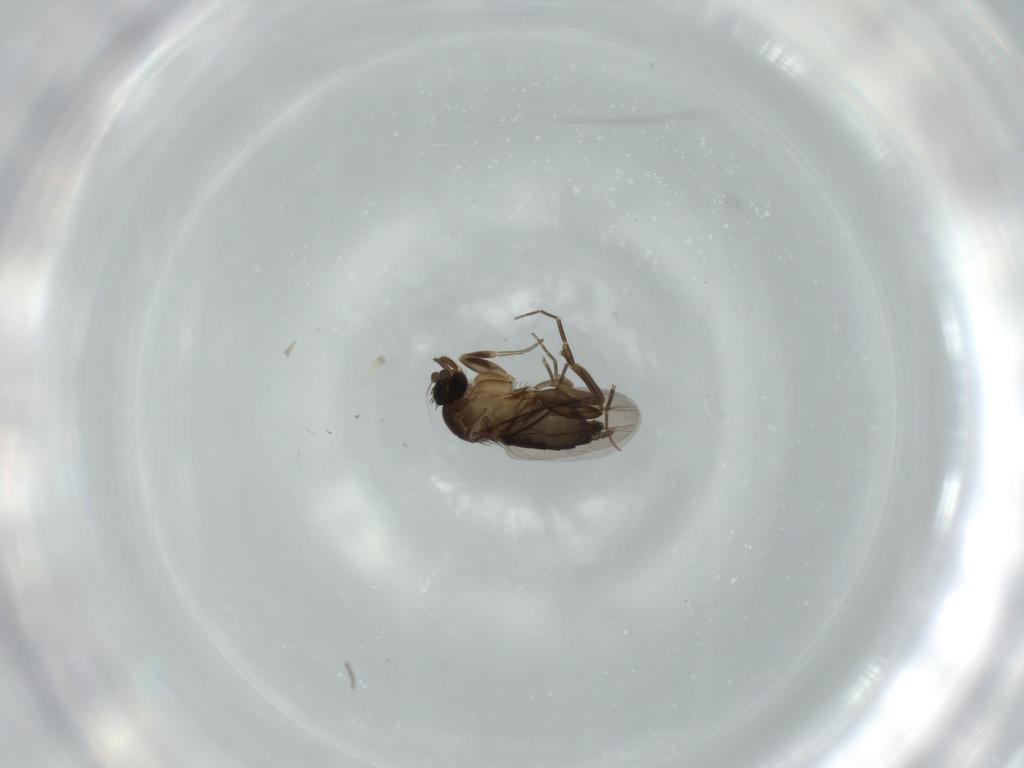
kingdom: Animalia
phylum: Arthropoda
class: Insecta
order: Diptera
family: Phoridae
